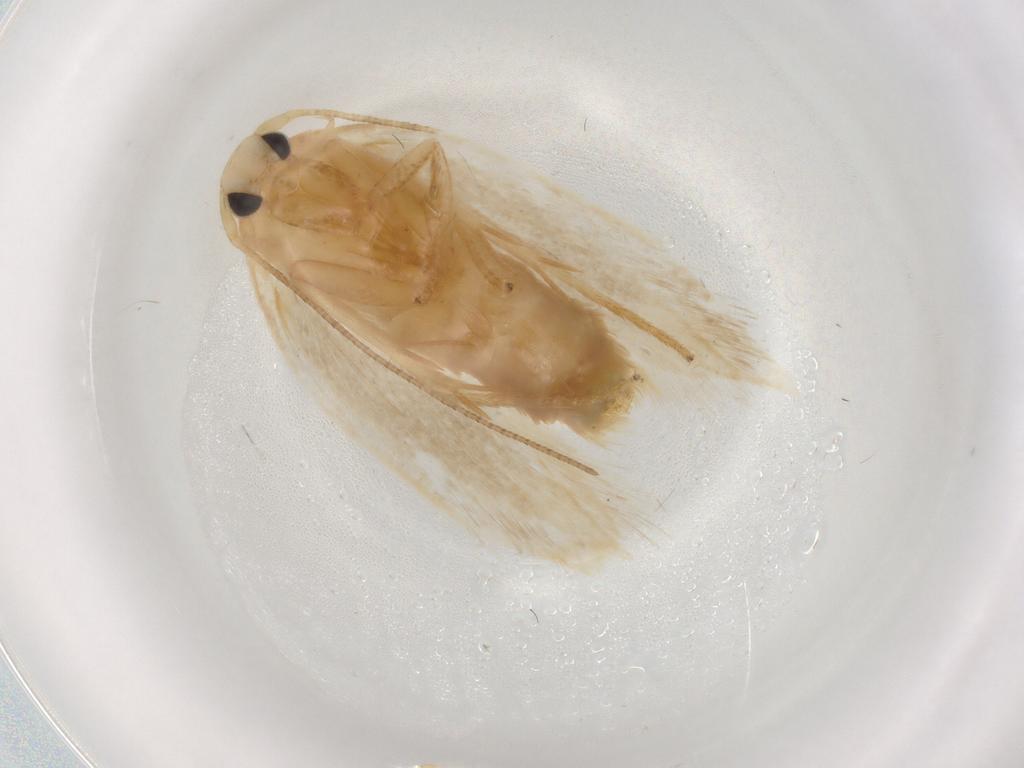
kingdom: Animalia
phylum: Arthropoda
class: Insecta
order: Lepidoptera
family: Geometridae
